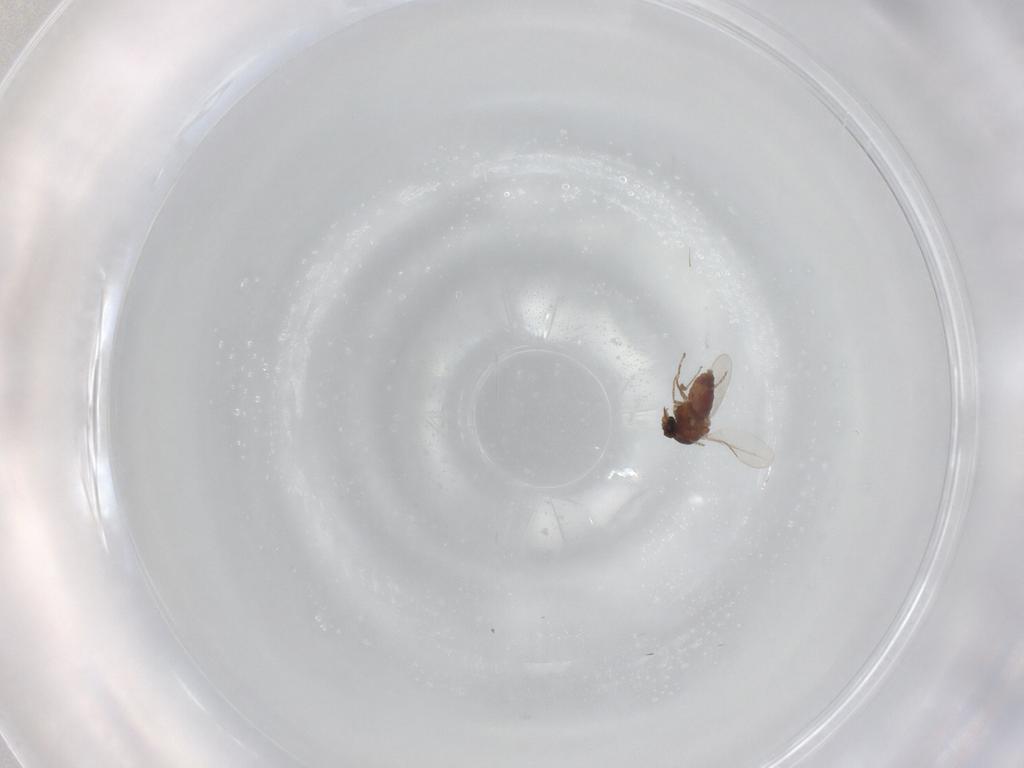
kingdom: Animalia
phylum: Arthropoda
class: Insecta
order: Diptera
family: Ceratopogonidae
